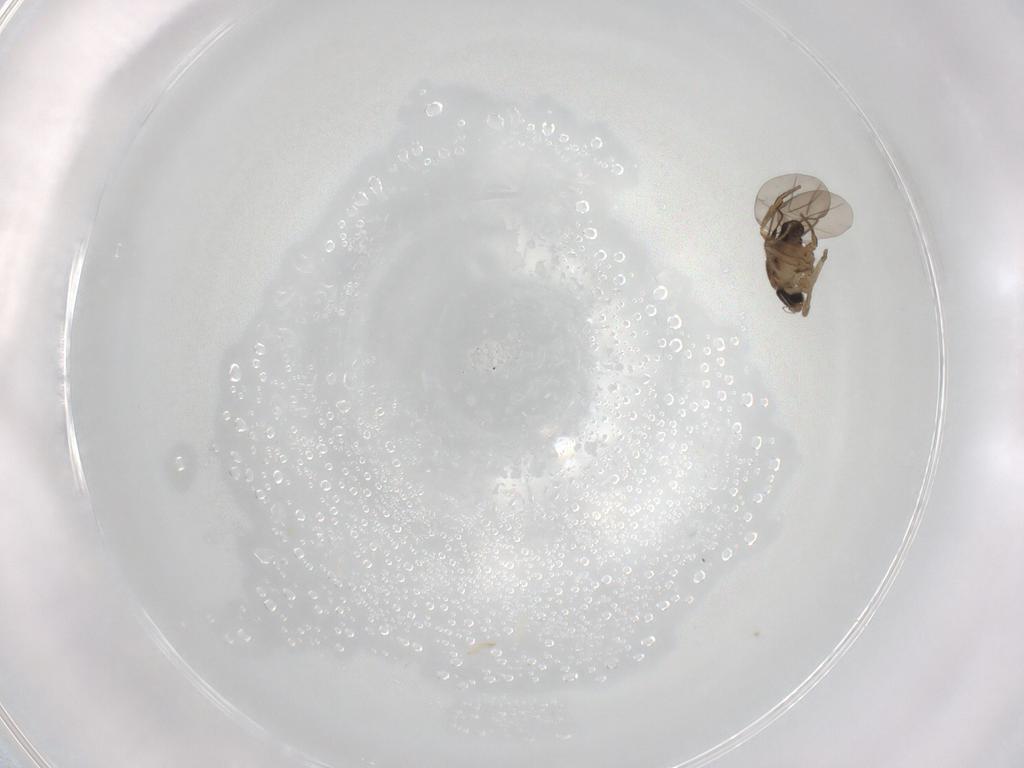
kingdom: Animalia
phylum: Arthropoda
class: Insecta
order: Diptera
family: Phoridae
